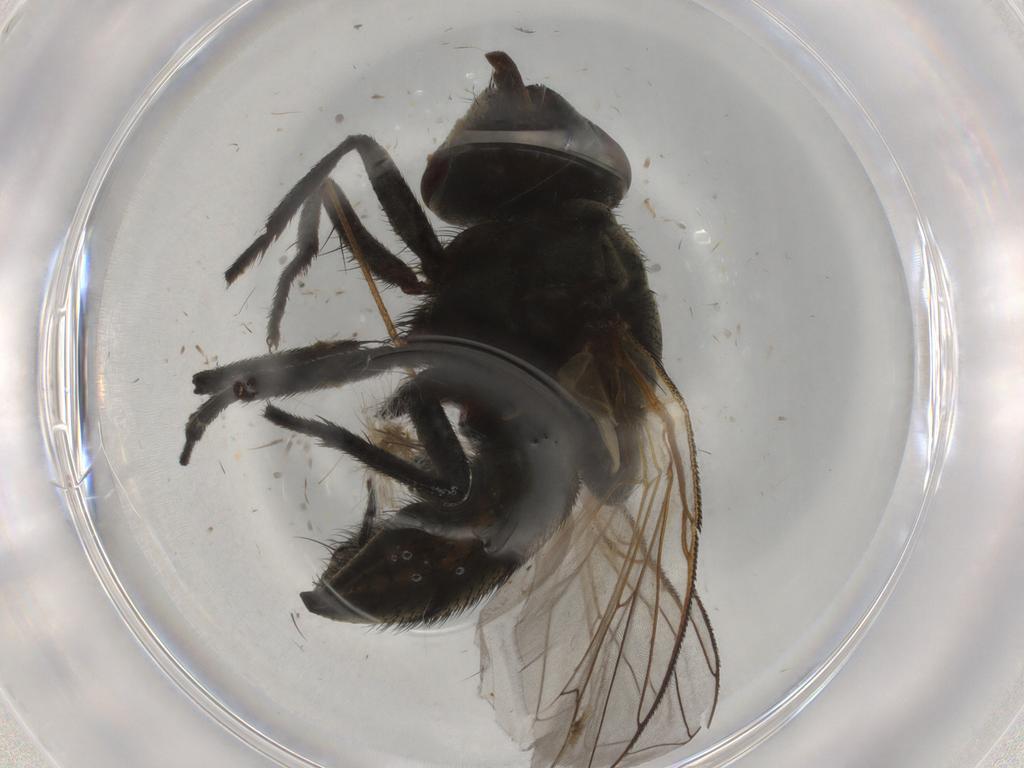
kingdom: Animalia
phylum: Arthropoda
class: Insecta
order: Diptera
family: Muscidae
